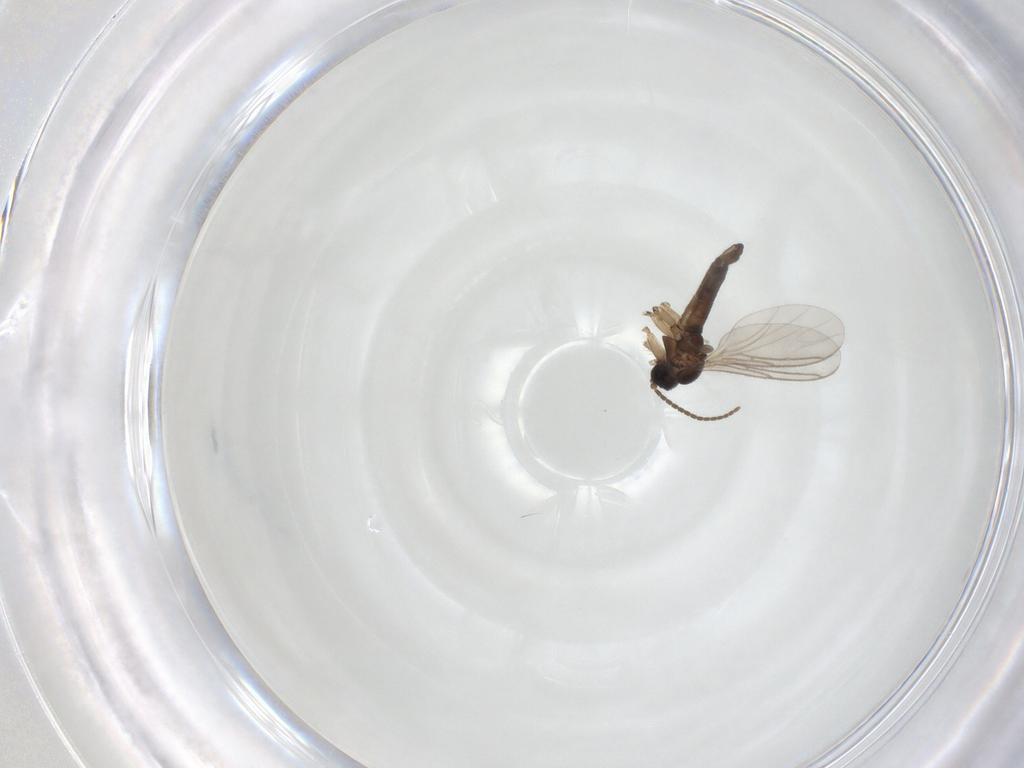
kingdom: Animalia
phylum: Arthropoda
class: Insecta
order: Diptera
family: Sciaridae
